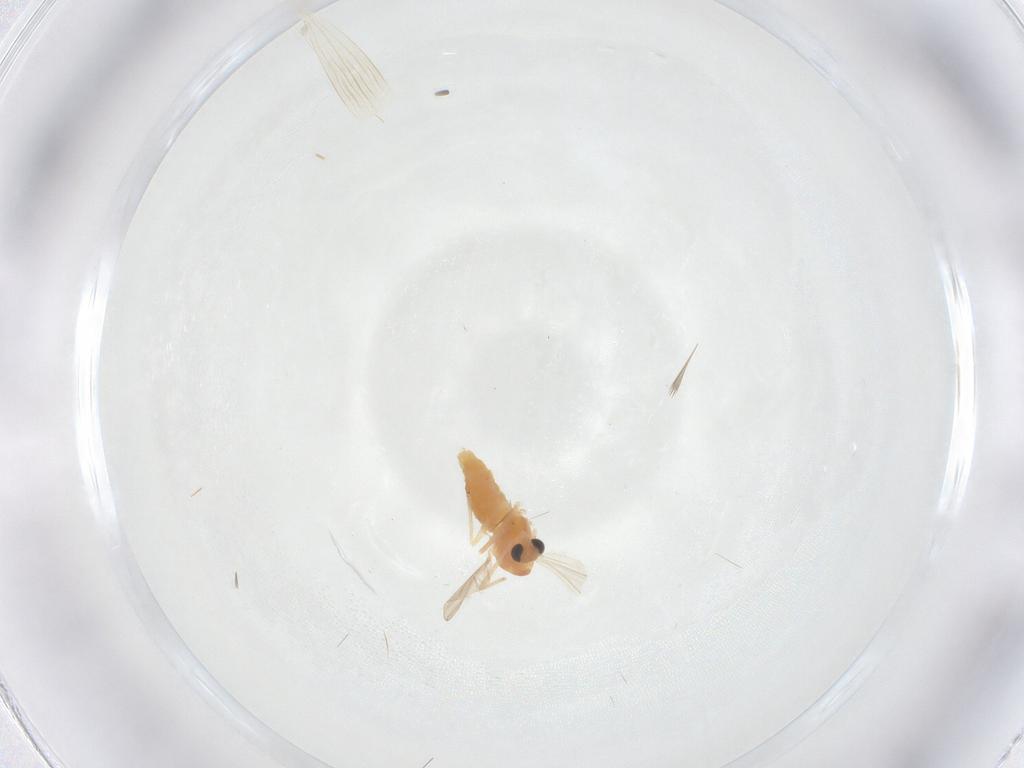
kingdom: Animalia
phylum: Arthropoda
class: Insecta
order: Diptera
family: Chironomidae
